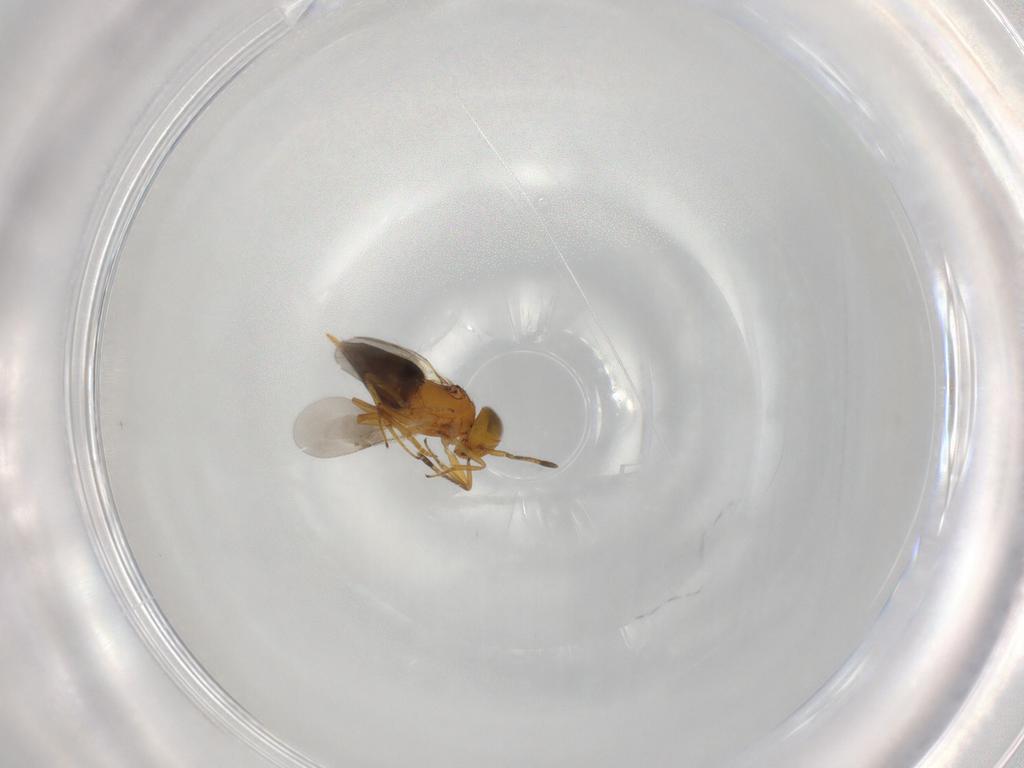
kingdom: Animalia
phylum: Arthropoda
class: Insecta
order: Hymenoptera
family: Encyrtidae
